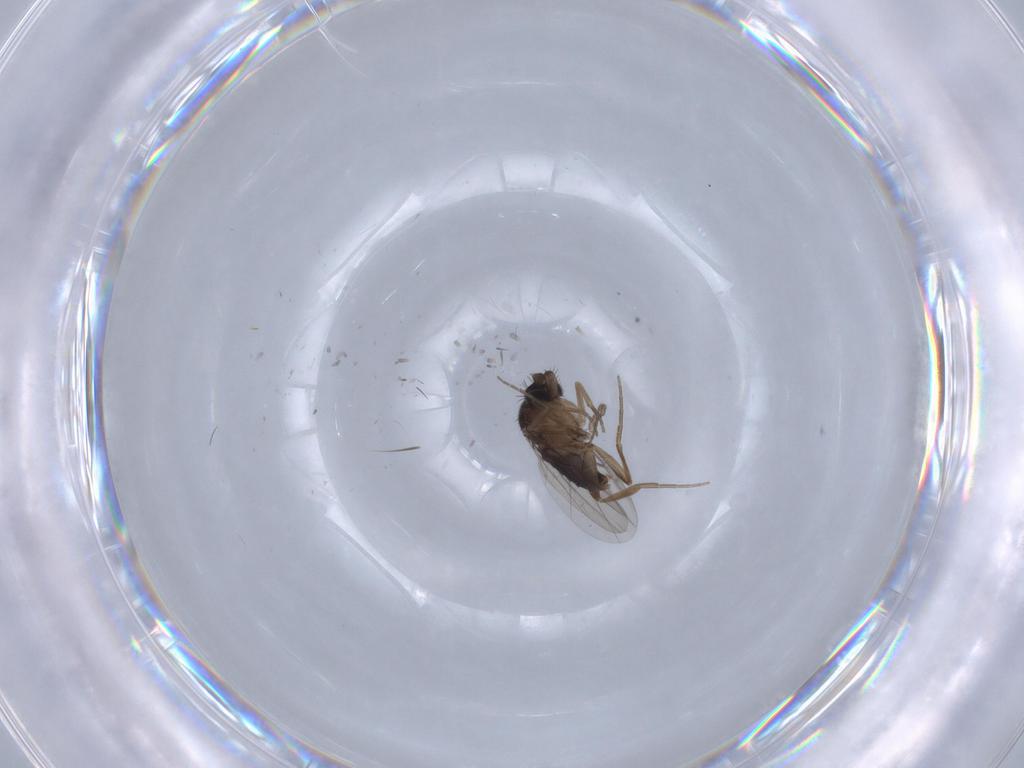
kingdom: Animalia
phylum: Arthropoda
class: Insecta
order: Diptera
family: Phoridae
